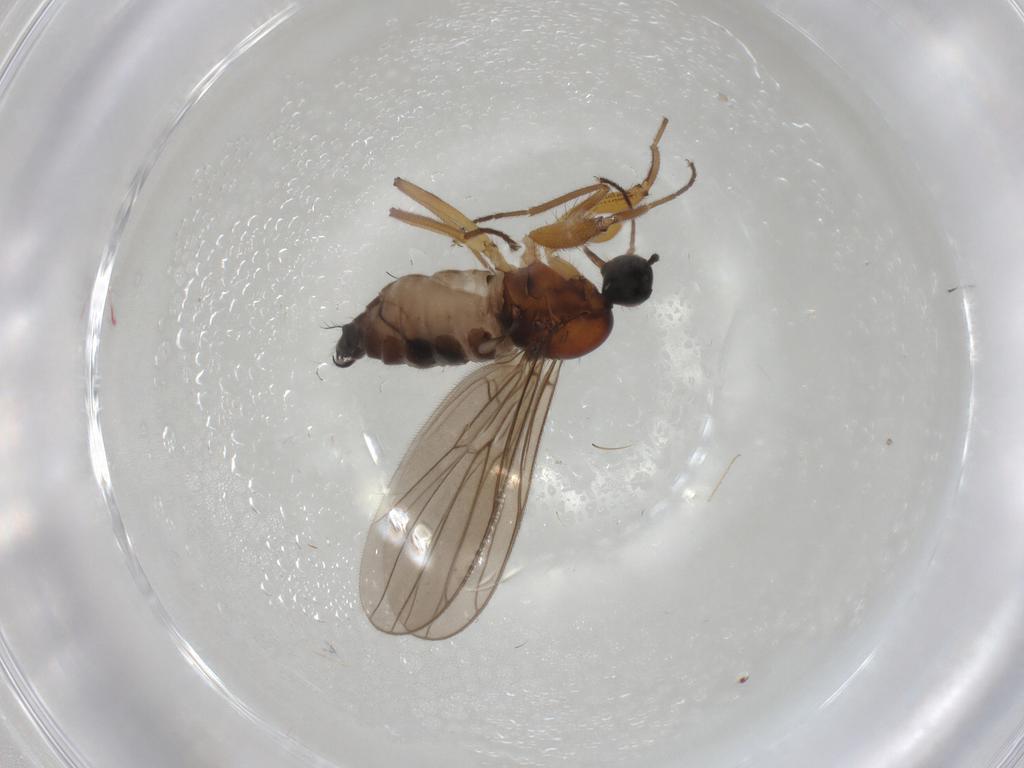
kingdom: Animalia
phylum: Arthropoda
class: Insecta
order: Diptera
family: Hybotidae
